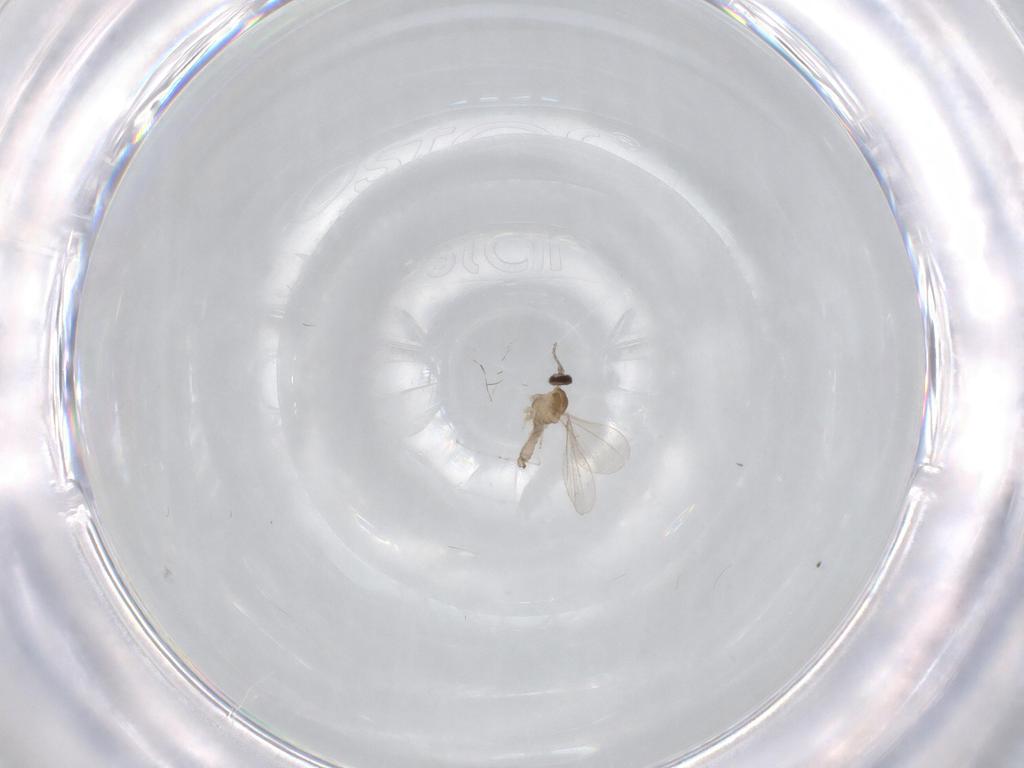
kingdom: Animalia
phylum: Arthropoda
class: Insecta
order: Diptera
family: Cecidomyiidae
